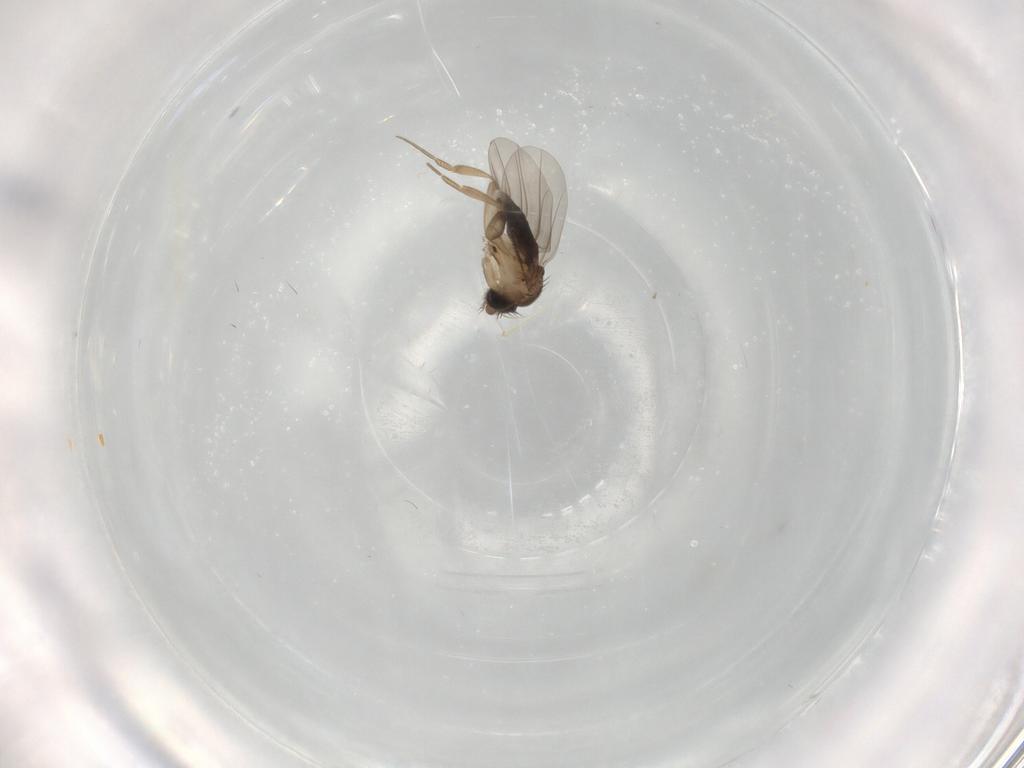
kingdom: Animalia
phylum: Arthropoda
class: Insecta
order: Diptera
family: Phoridae
